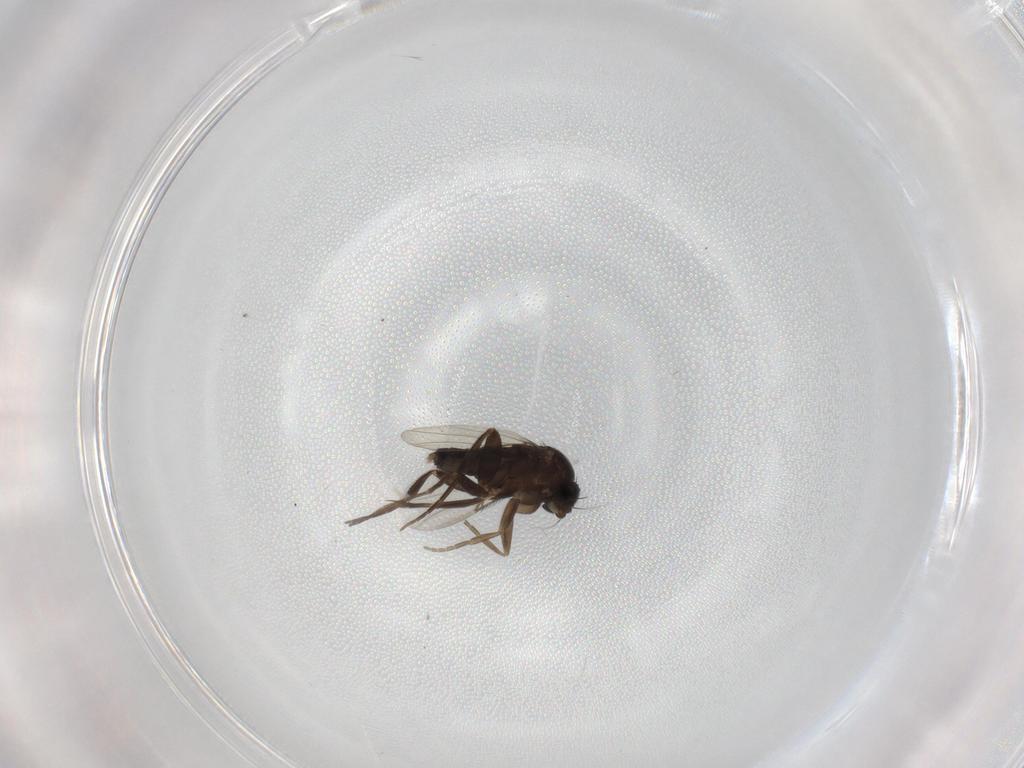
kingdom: Animalia
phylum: Arthropoda
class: Insecta
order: Diptera
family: Phoridae
